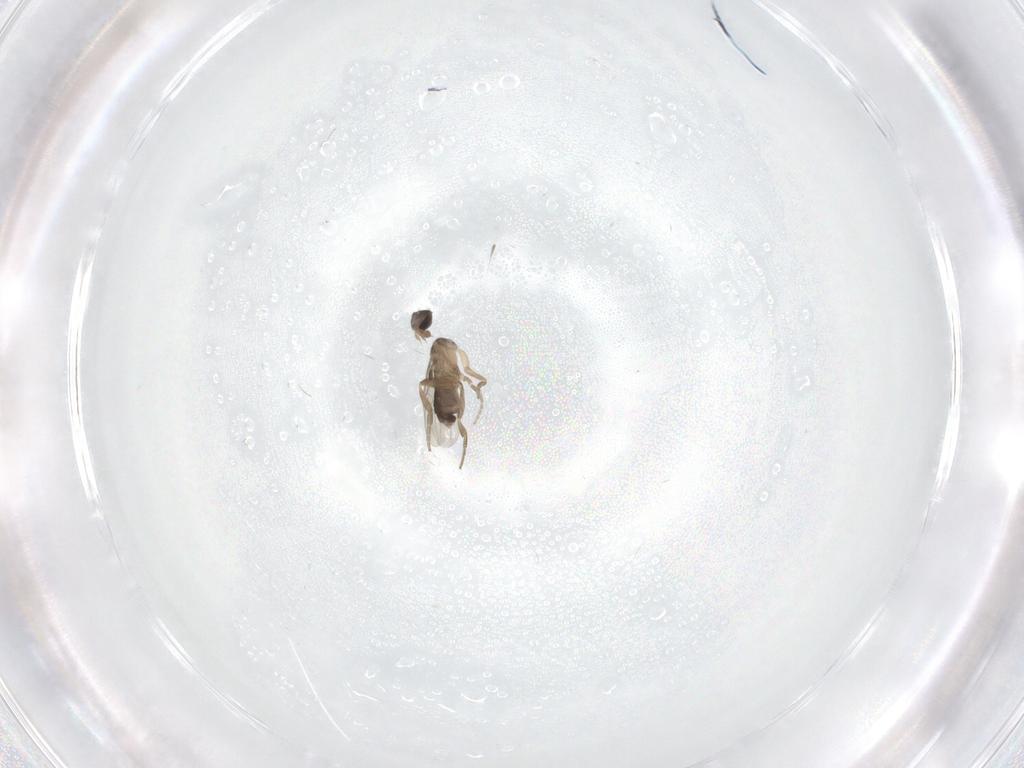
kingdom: Animalia
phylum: Arthropoda
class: Insecta
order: Diptera
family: Phoridae
